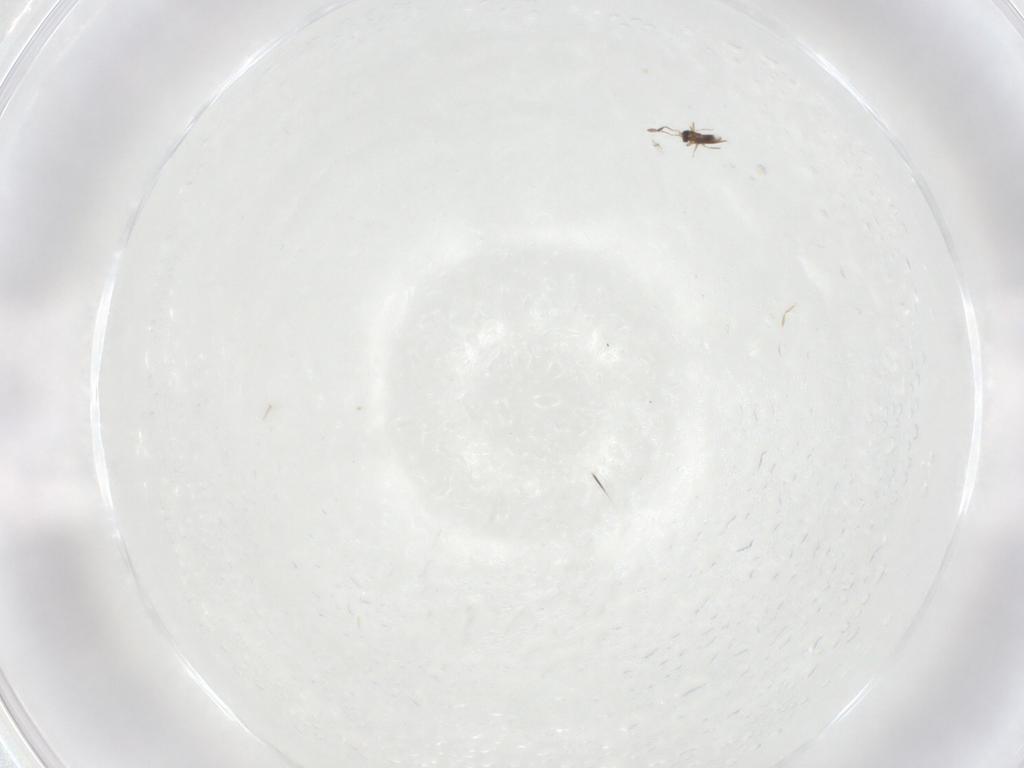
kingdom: Animalia
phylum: Arthropoda
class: Insecta
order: Hymenoptera
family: Mymaridae
